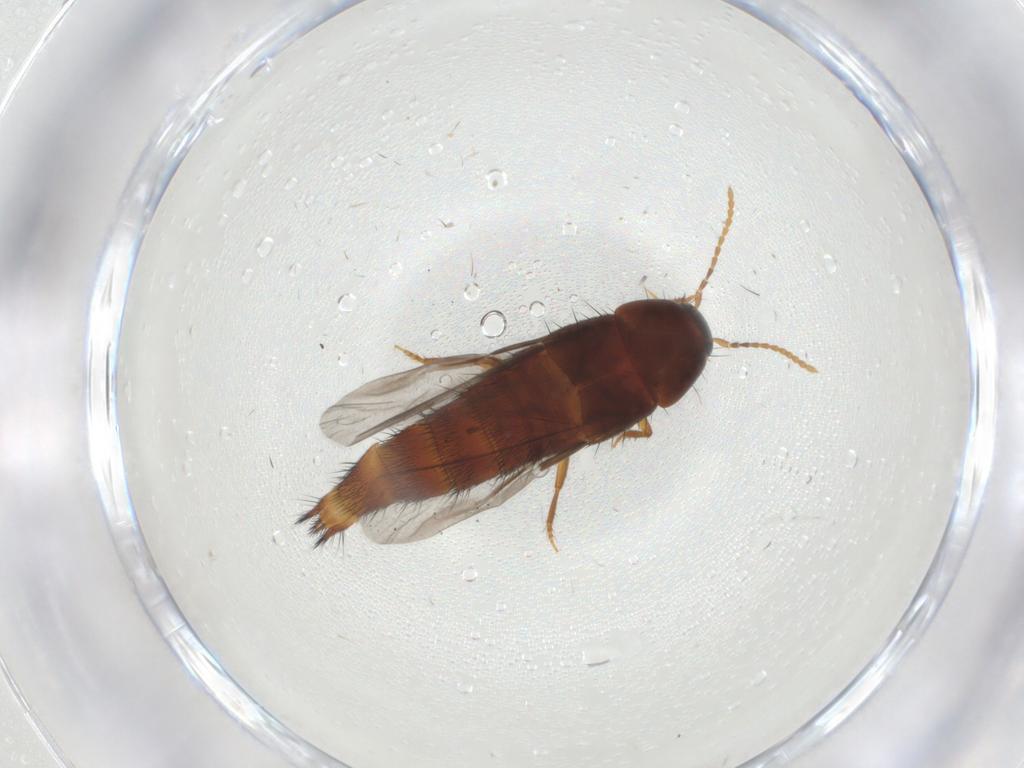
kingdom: Animalia
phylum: Arthropoda
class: Insecta
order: Coleoptera
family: Staphylinidae
